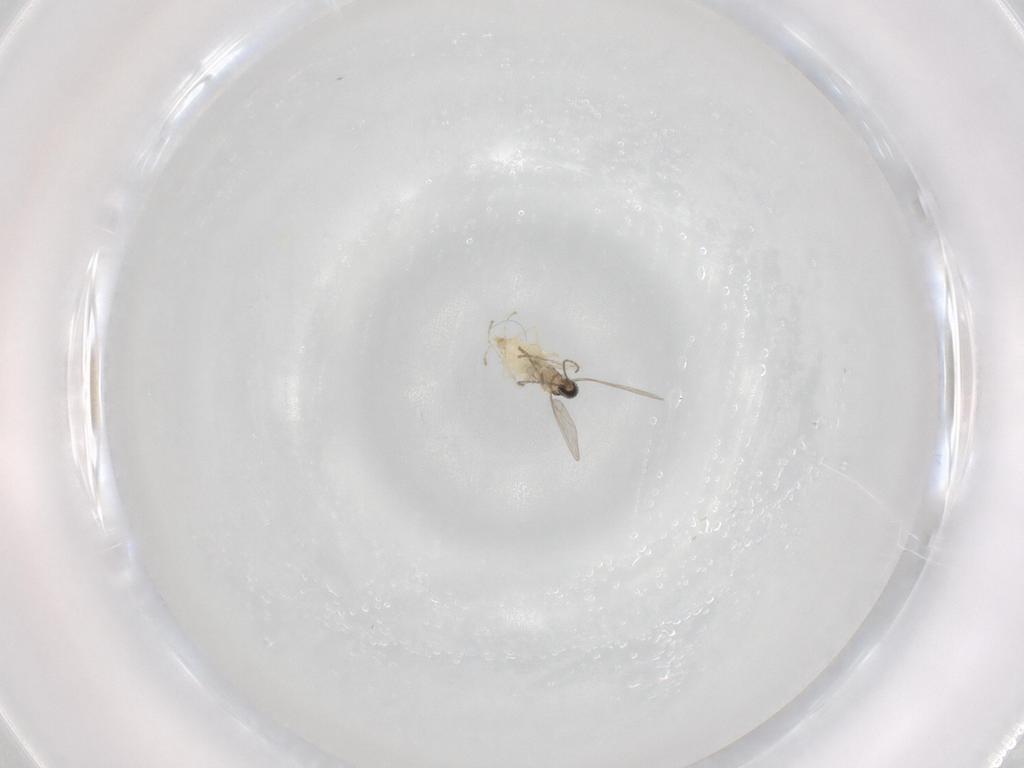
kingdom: Animalia
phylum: Arthropoda
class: Insecta
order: Diptera
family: Cecidomyiidae
